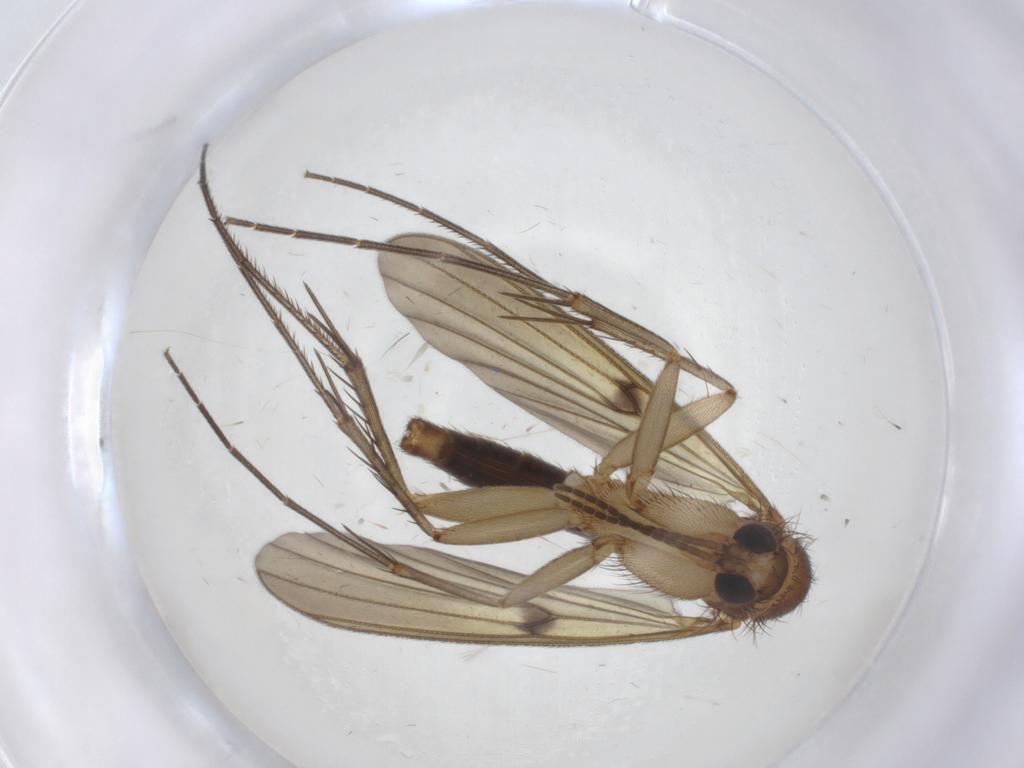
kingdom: Animalia
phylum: Arthropoda
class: Insecta
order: Diptera
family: Mycetophilidae
